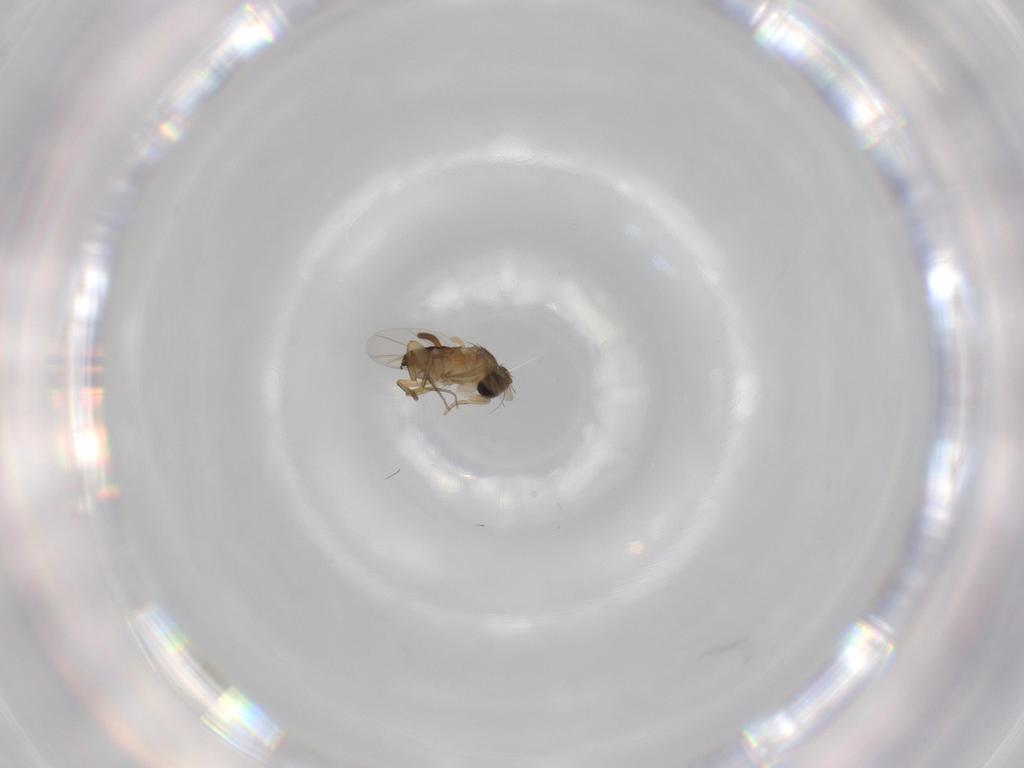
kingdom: Animalia
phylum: Arthropoda
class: Insecta
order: Diptera
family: Phoridae
